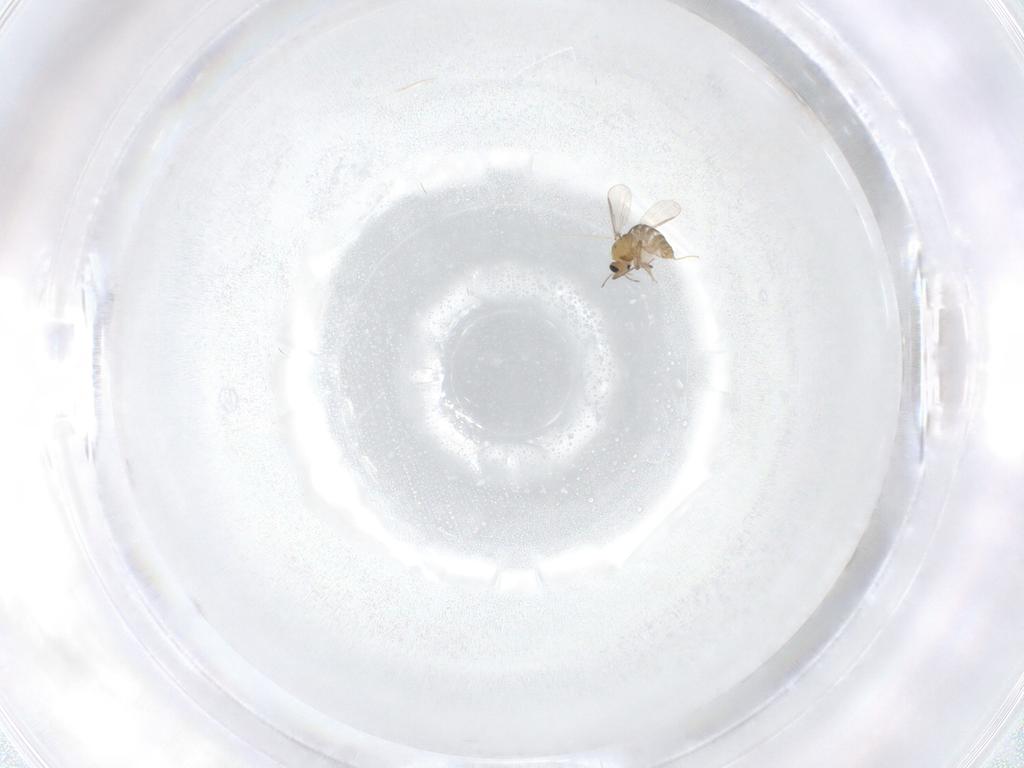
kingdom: Animalia
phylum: Arthropoda
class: Insecta
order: Diptera
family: Chironomidae
